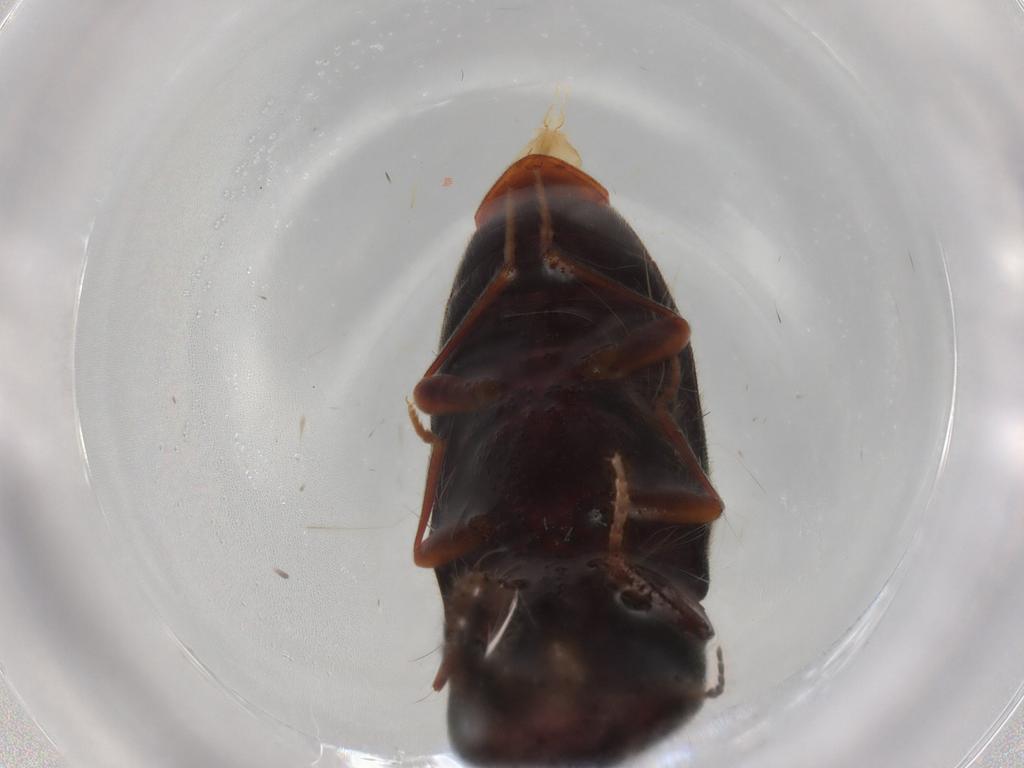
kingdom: Animalia
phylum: Arthropoda
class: Insecta
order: Coleoptera
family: Elateridae
